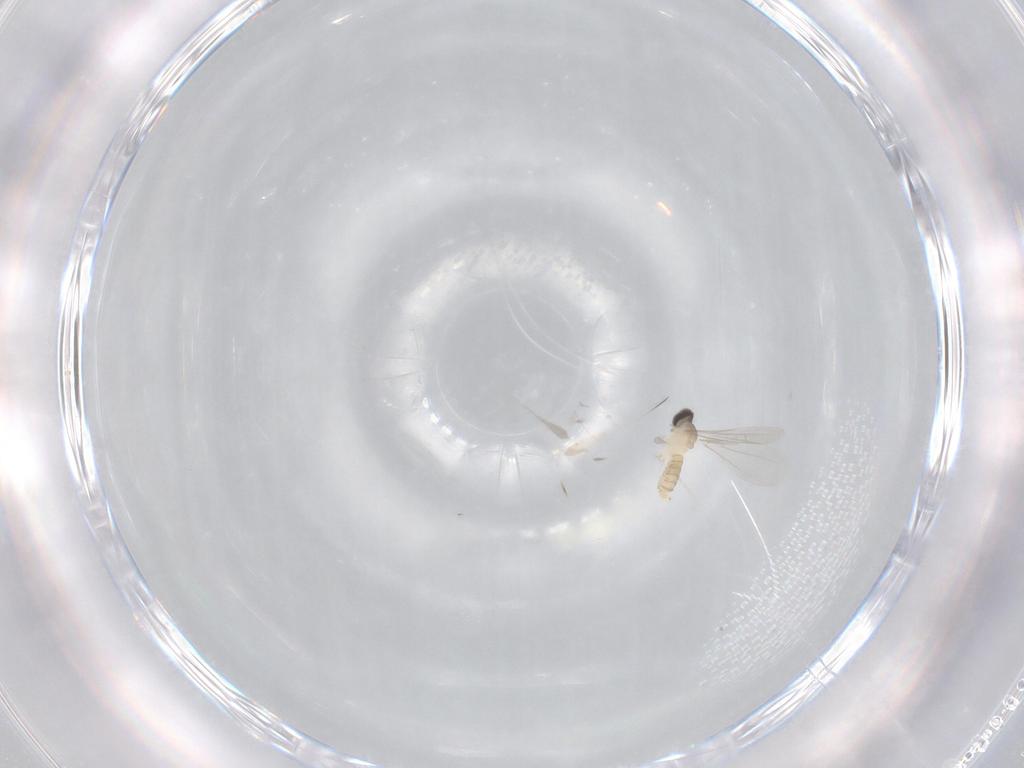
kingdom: Animalia
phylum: Arthropoda
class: Insecta
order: Diptera
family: Cecidomyiidae
